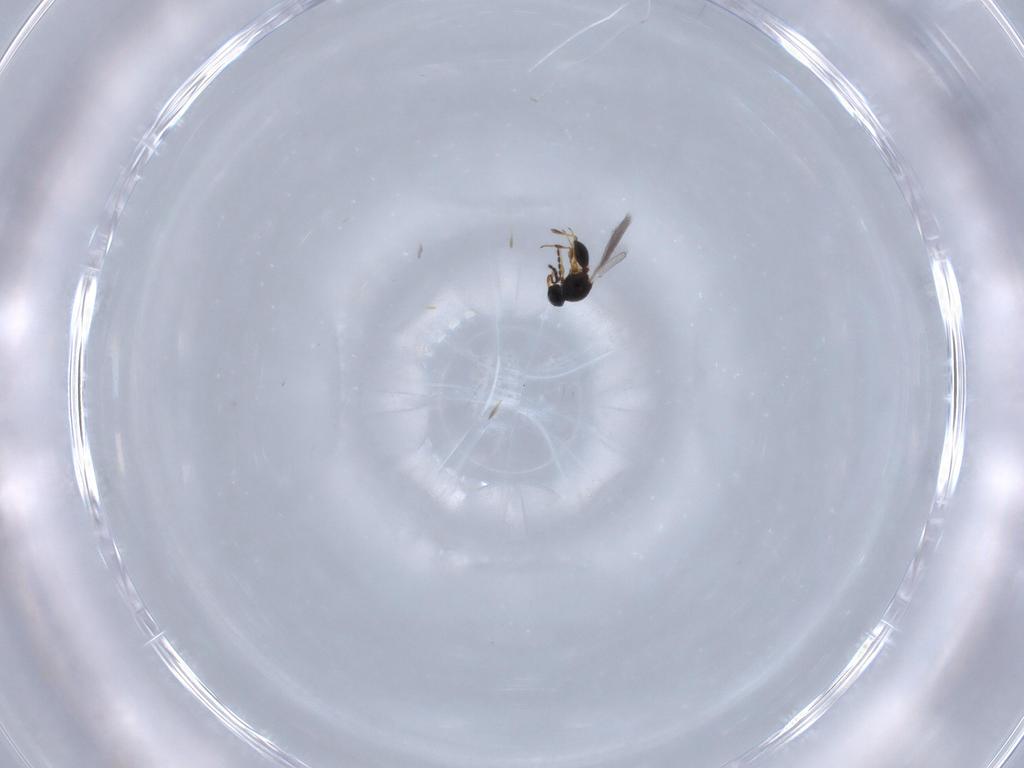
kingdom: Animalia
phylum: Arthropoda
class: Insecta
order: Hymenoptera
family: Platygastridae
